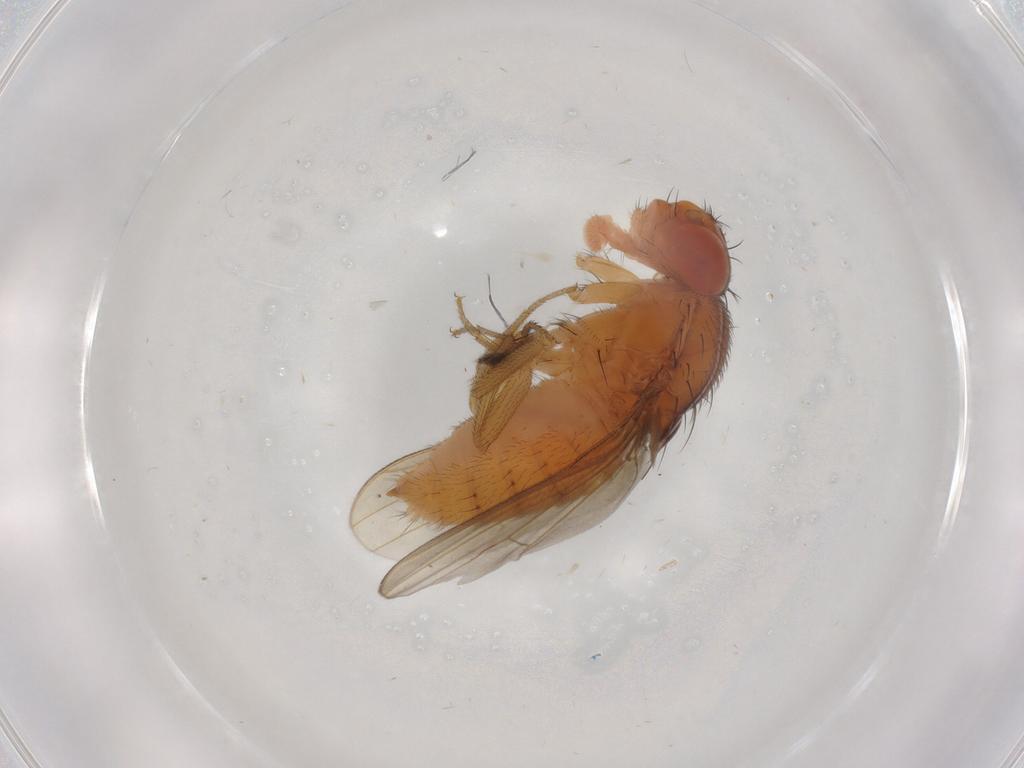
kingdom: Animalia
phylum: Arthropoda
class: Insecta
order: Diptera
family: Drosophilidae
